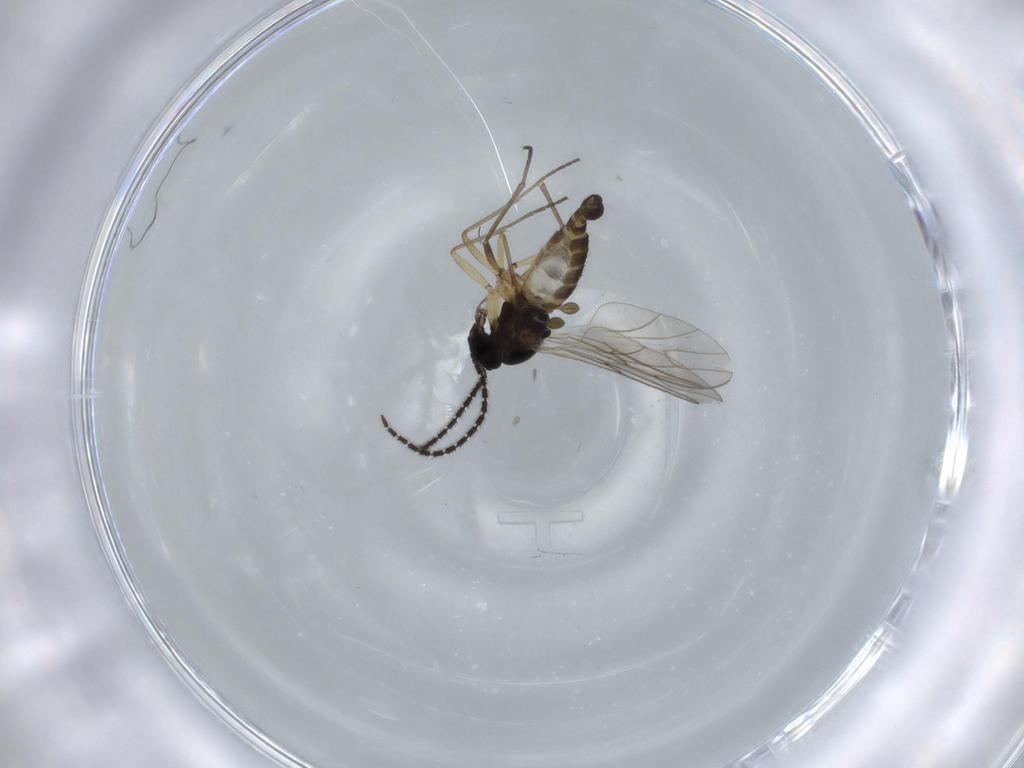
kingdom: Animalia
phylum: Arthropoda
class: Insecta
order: Diptera
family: Sciaridae
